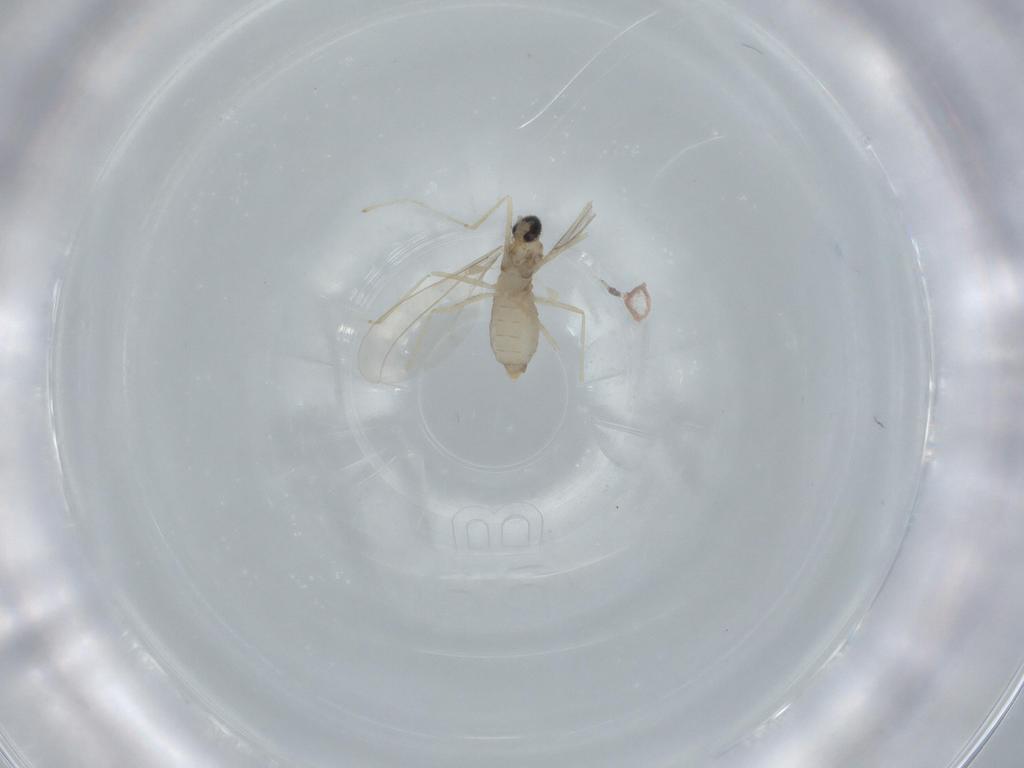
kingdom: Animalia
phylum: Arthropoda
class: Insecta
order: Diptera
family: Cecidomyiidae
